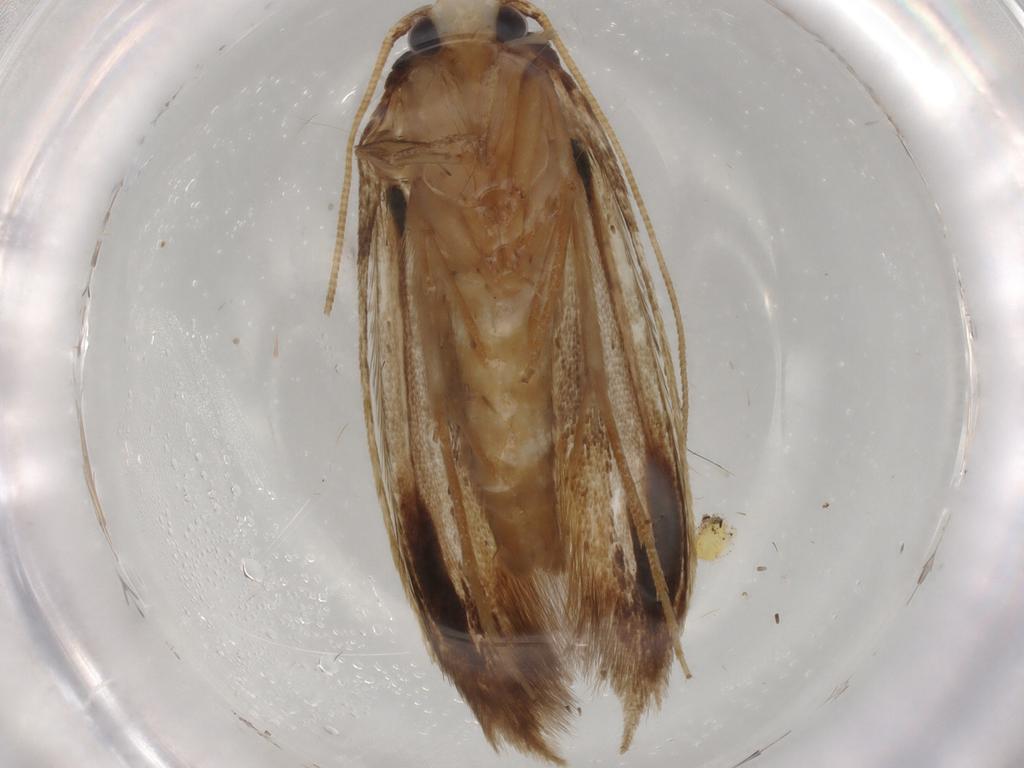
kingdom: Animalia
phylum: Arthropoda
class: Insecta
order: Lepidoptera
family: Tineidae
